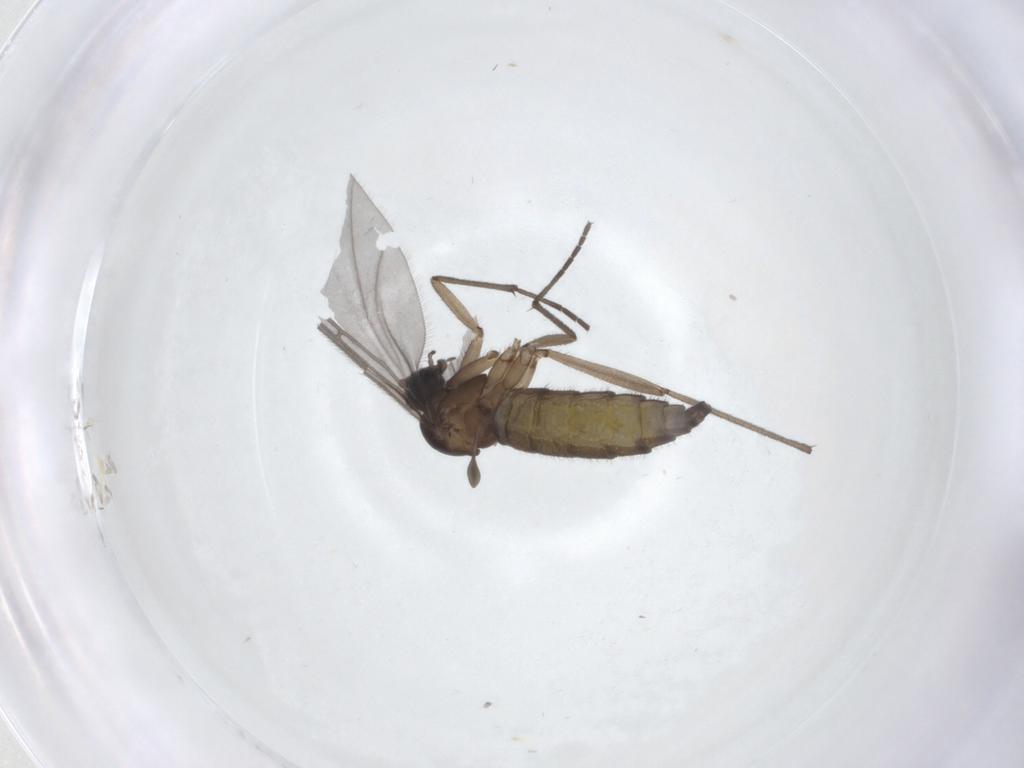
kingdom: Animalia
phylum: Arthropoda
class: Insecta
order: Diptera
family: Sciaridae
